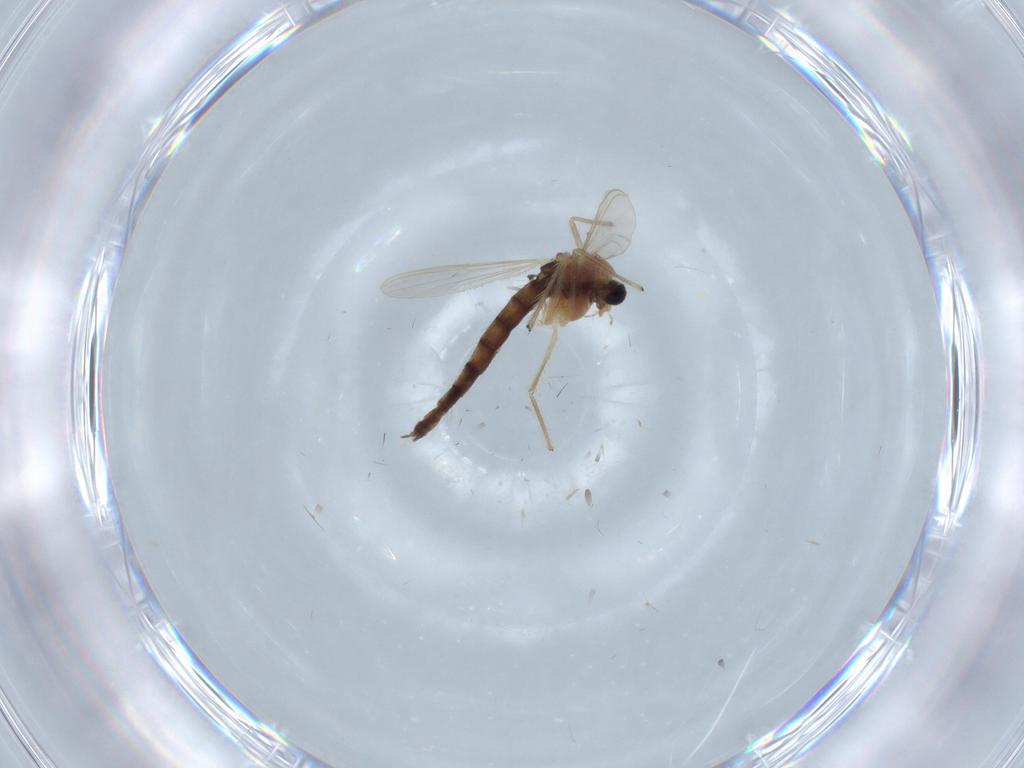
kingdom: Animalia
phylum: Arthropoda
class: Insecta
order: Diptera
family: Chironomidae
